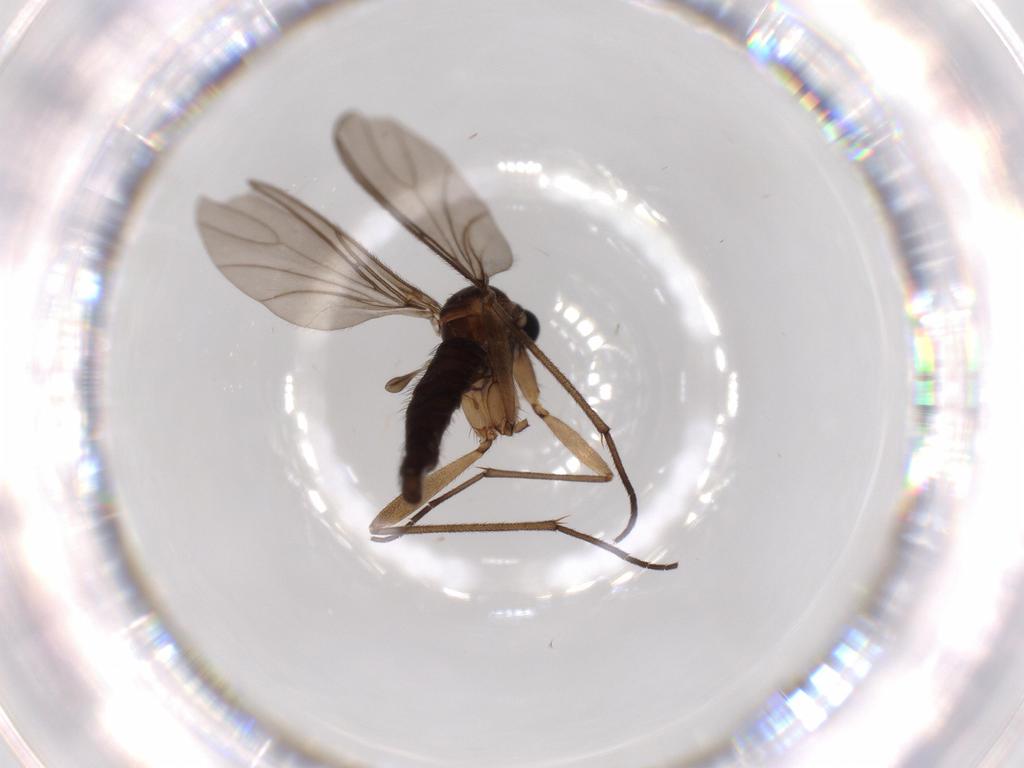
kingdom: Animalia
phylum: Arthropoda
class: Insecta
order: Diptera
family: Sciaridae
